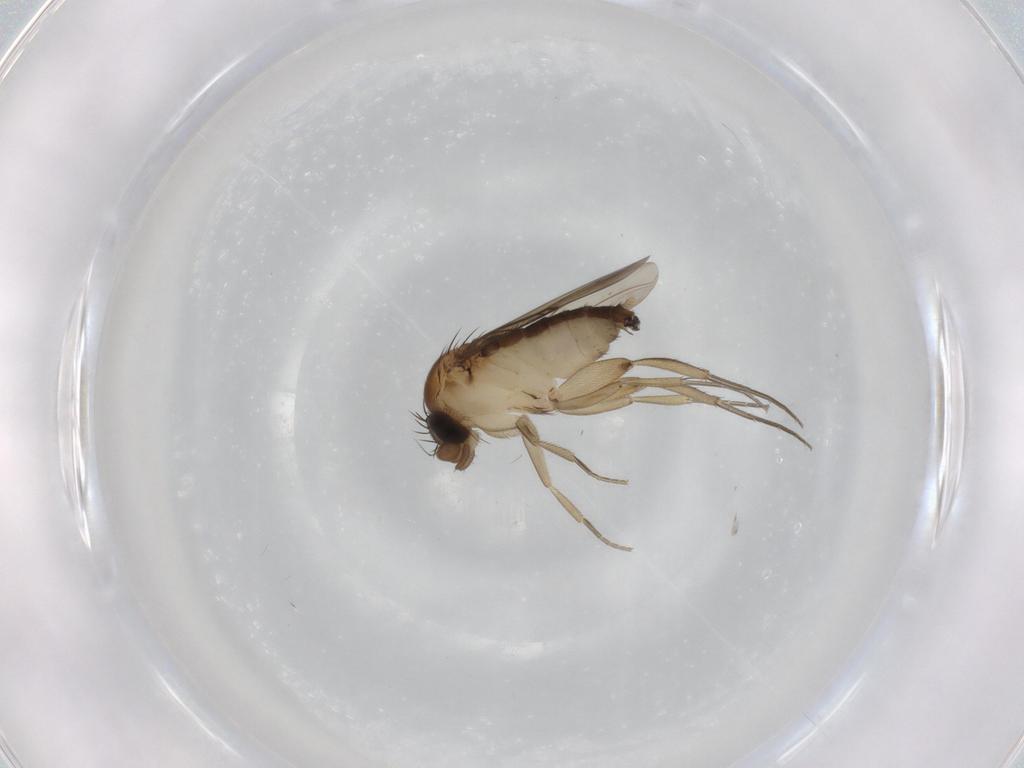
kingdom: Animalia
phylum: Arthropoda
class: Insecta
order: Diptera
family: Phoridae
